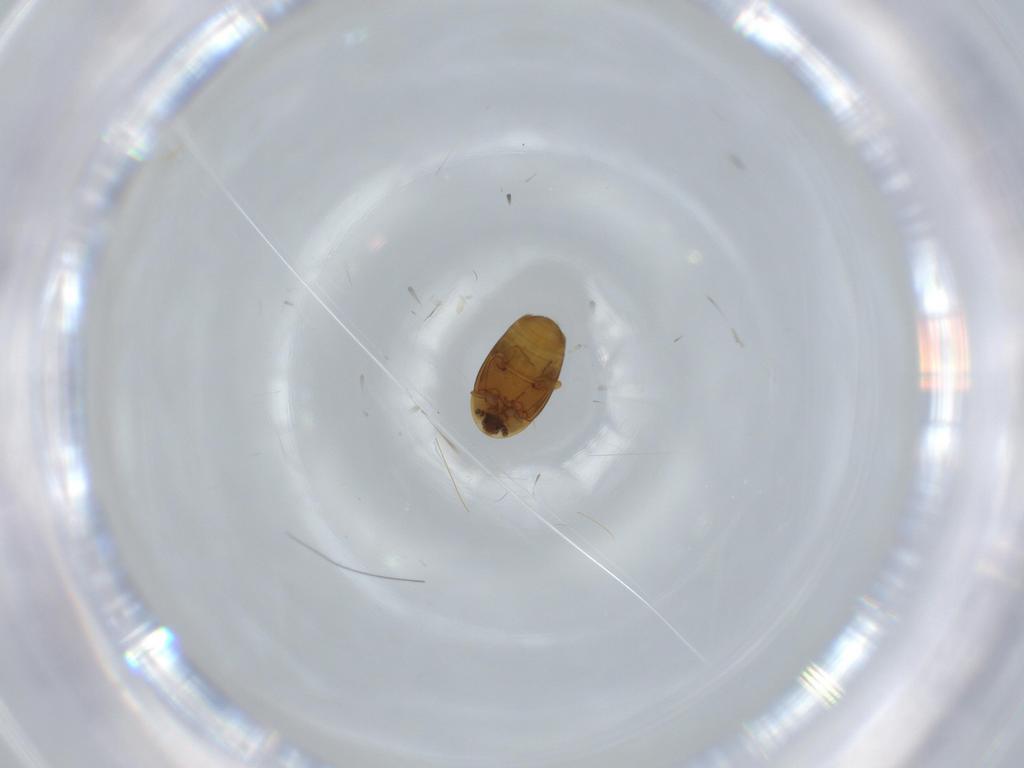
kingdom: Animalia
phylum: Arthropoda
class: Insecta
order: Coleoptera
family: Corylophidae
